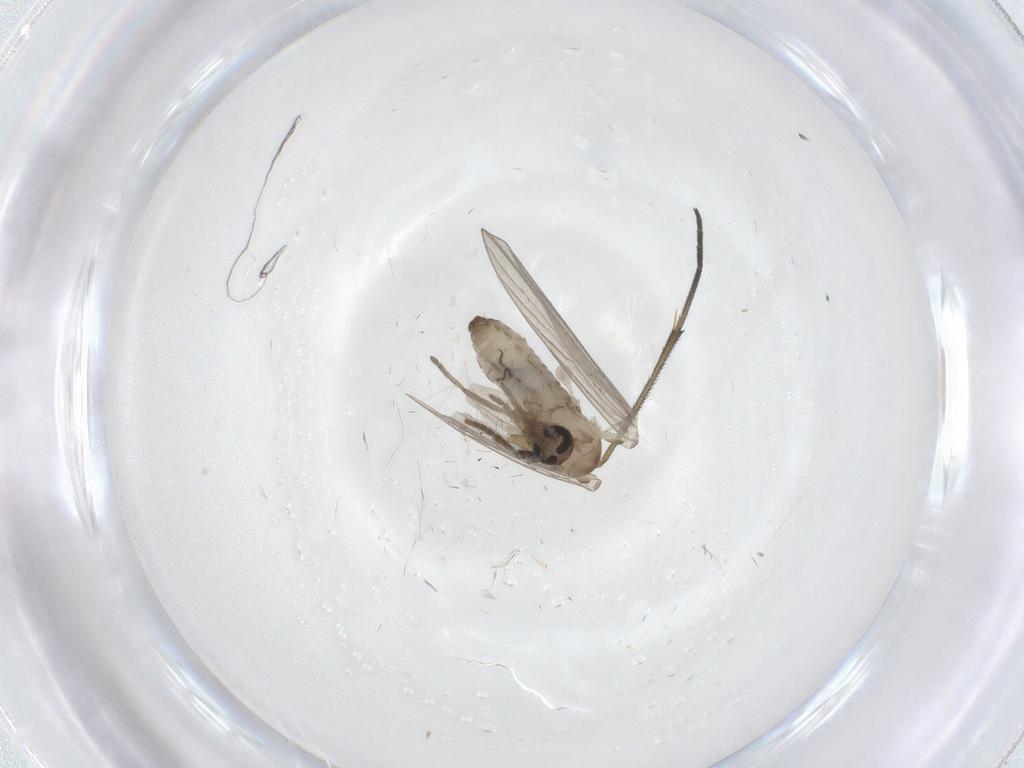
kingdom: Animalia
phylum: Arthropoda
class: Insecta
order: Diptera
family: Psychodidae
